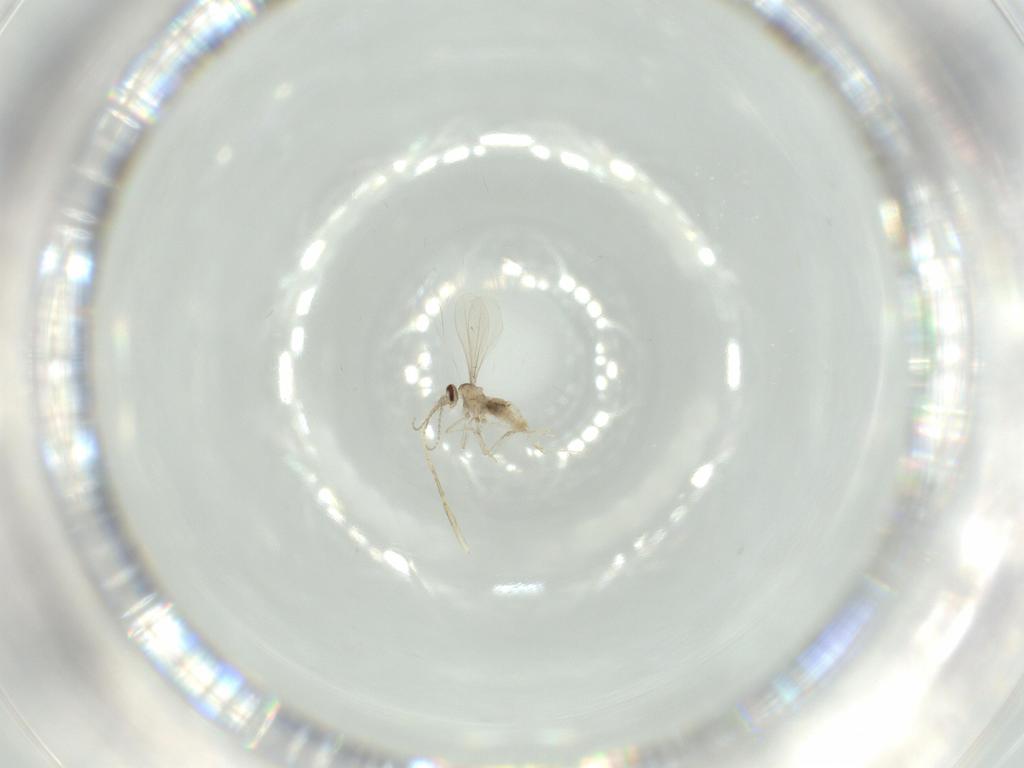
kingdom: Animalia
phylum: Arthropoda
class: Insecta
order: Diptera
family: Chaoboridae
